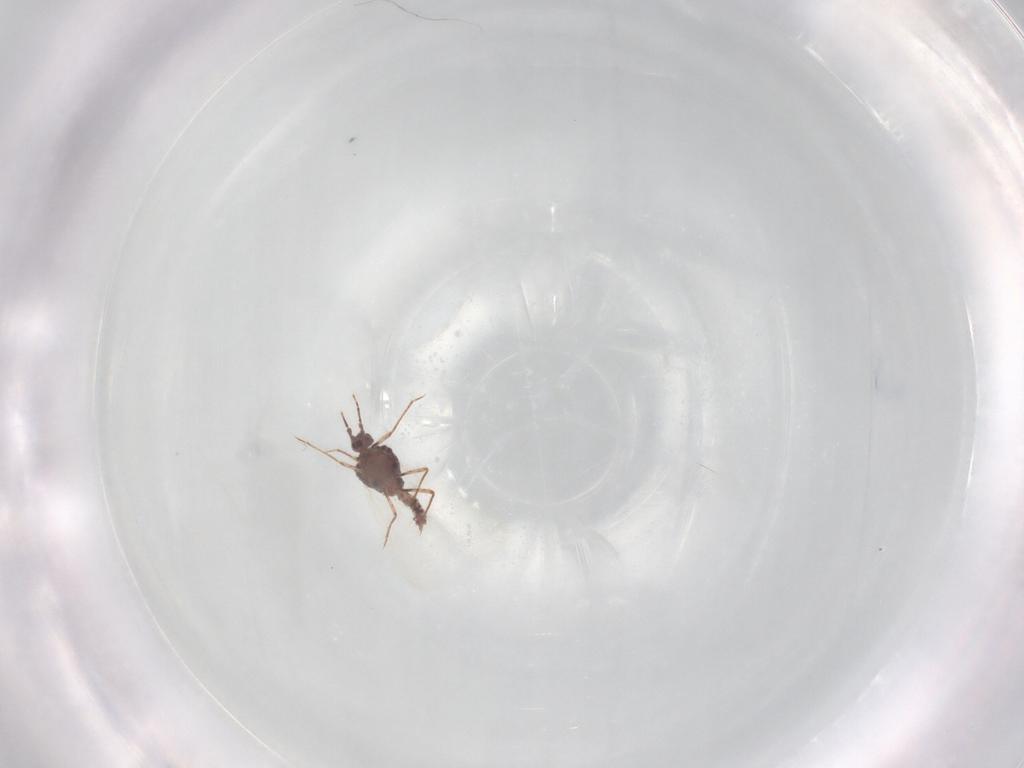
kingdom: Animalia
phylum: Arthropoda
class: Insecta
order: Hemiptera
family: Coccoidea_incertae_sedis
